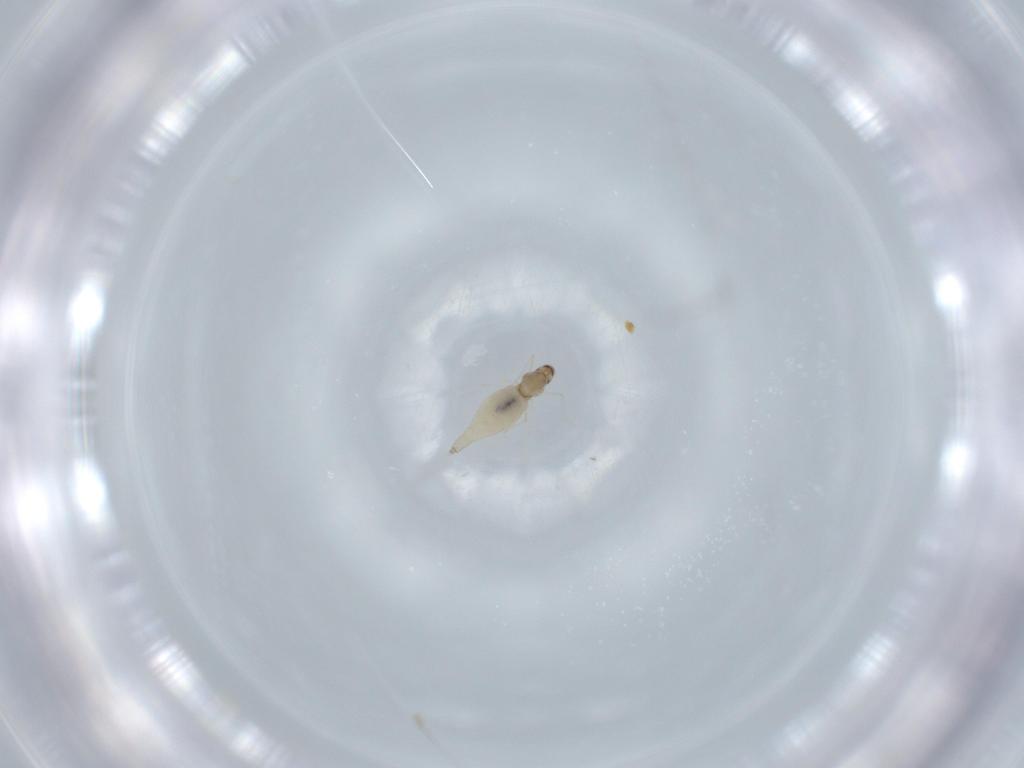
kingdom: Animalia
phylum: Arthropoda
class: Insecta
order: Diptera
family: Cecidomyiidae
